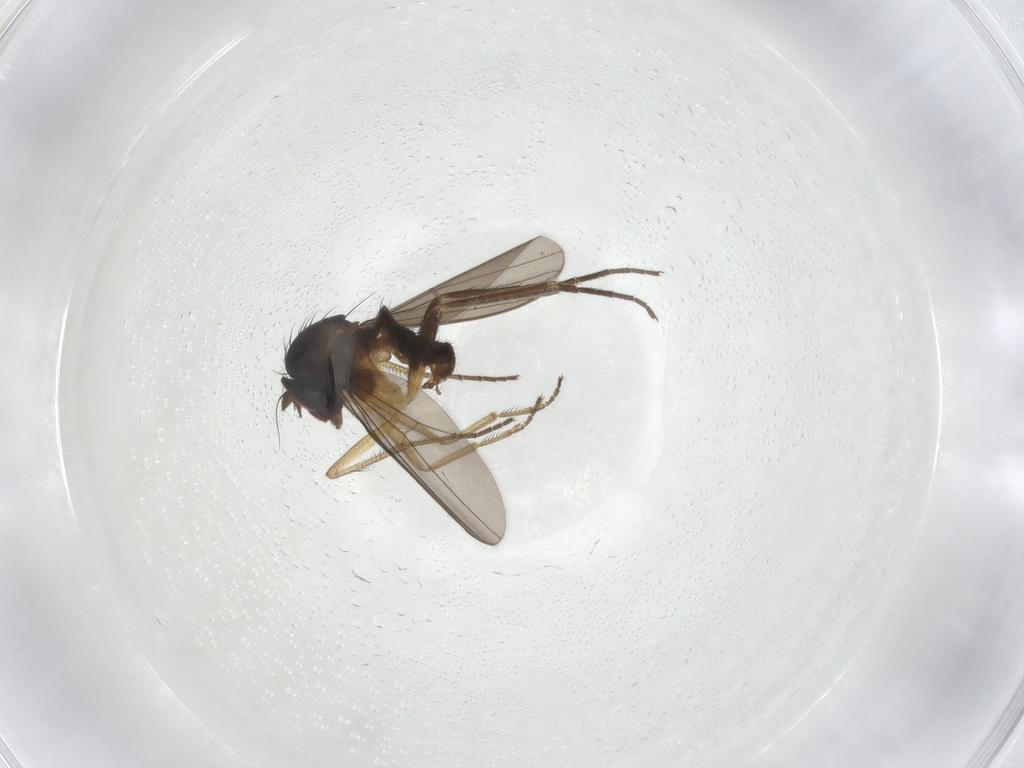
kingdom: Animalia
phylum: Arthropoda
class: Insecta
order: Diptera
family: Dolichopodidae
